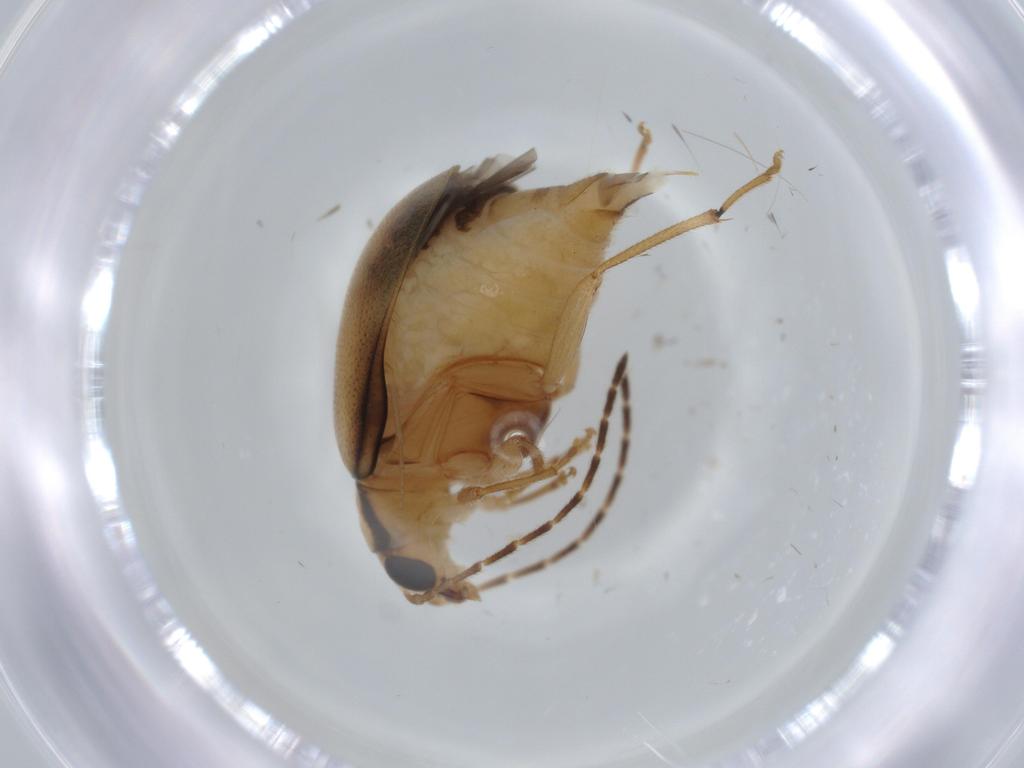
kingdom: Animalia
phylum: Arthropoda
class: Insecta
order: Coleoptera
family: Chrysomelidae
